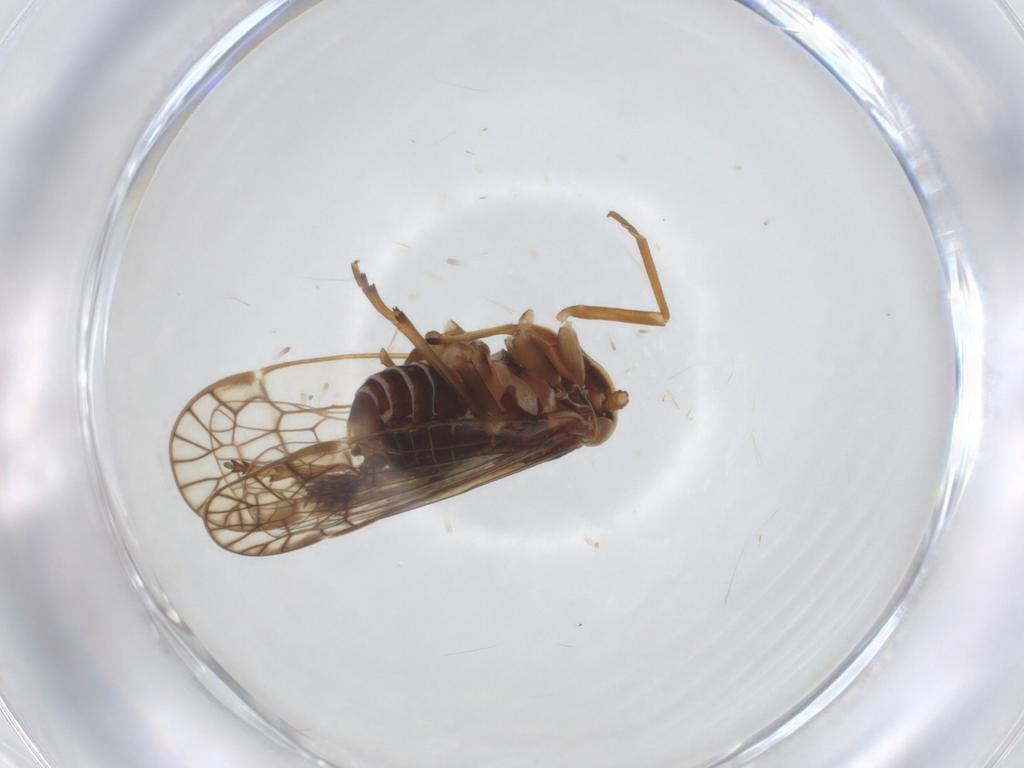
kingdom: Animalia
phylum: Arthropoda
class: Insecta
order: Hemiptera
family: Kinnaridae
